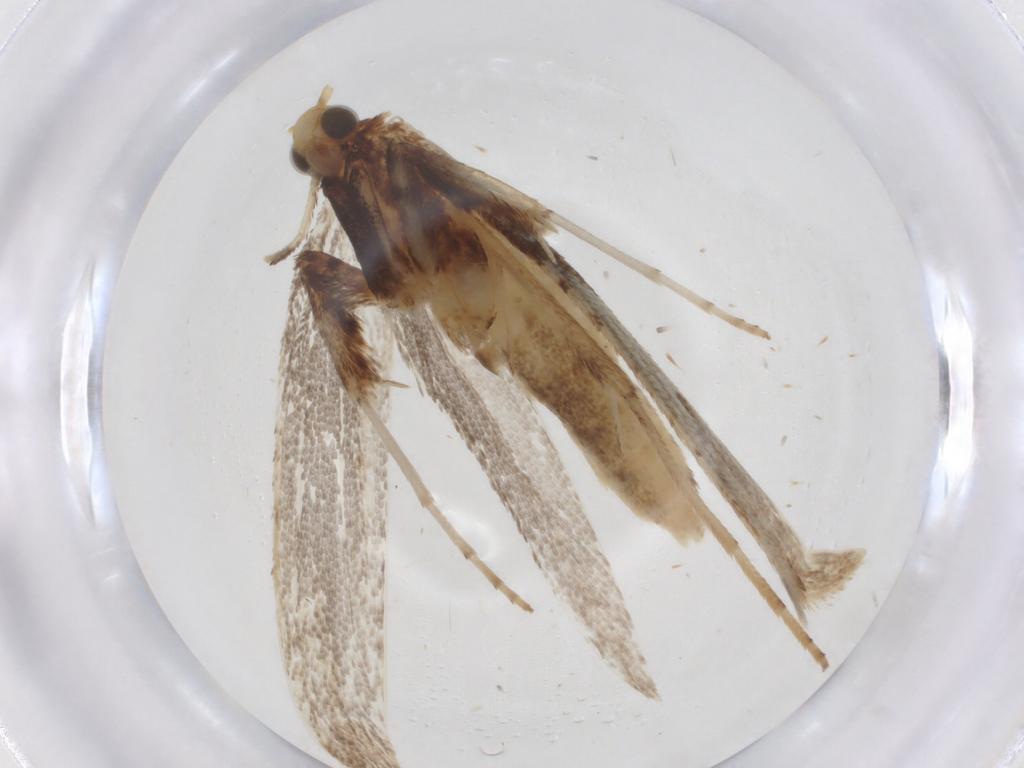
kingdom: Animalia
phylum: Arthropoda
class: Insecta
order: Lepidoptera
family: Gracillariidae
